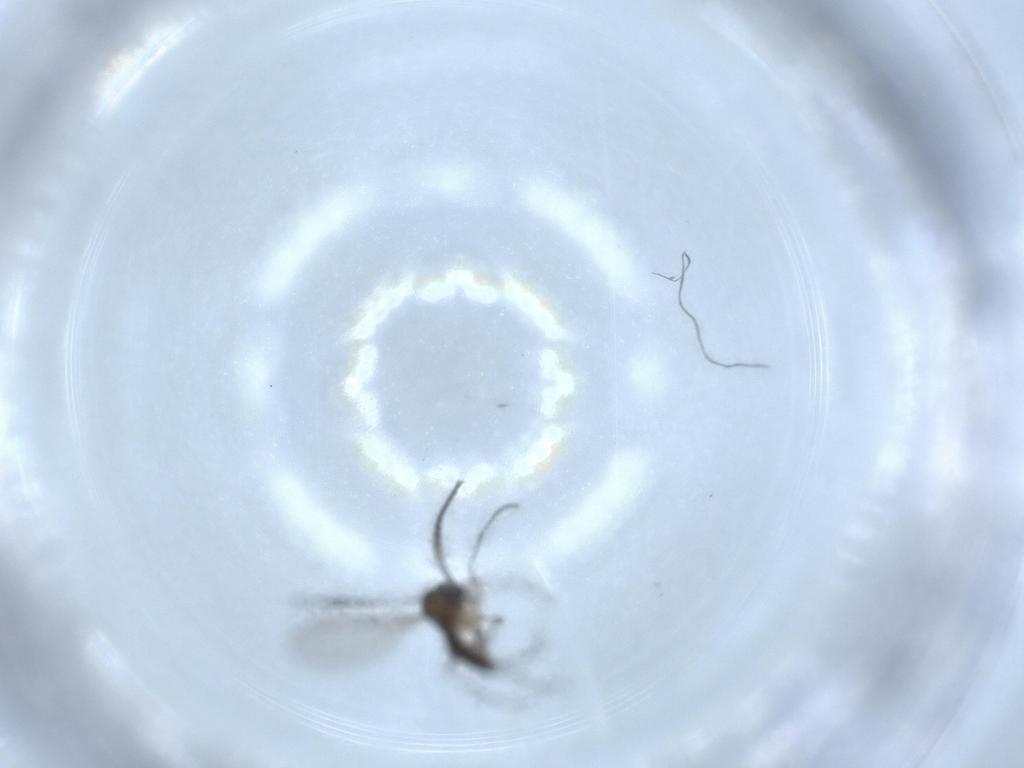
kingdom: Animalia
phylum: Arthropoda
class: Insecta
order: Diptera
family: Sciaridae
